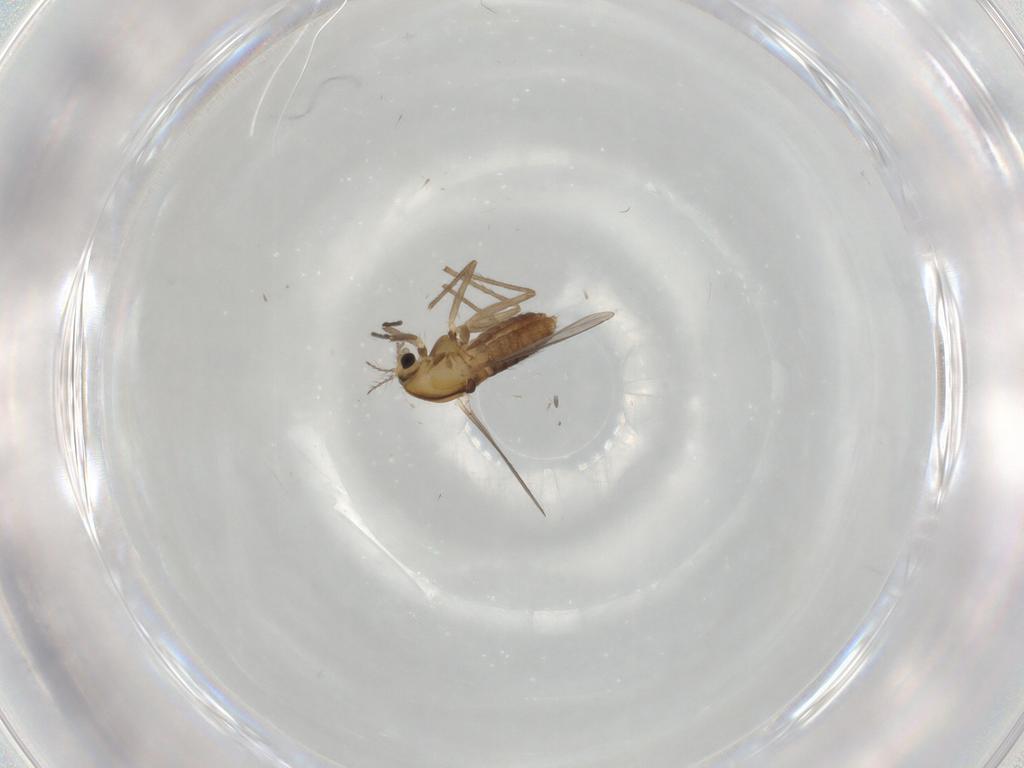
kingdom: Animalia
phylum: Arthropoda
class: Insecta
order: Diptera
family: Chironomidae
